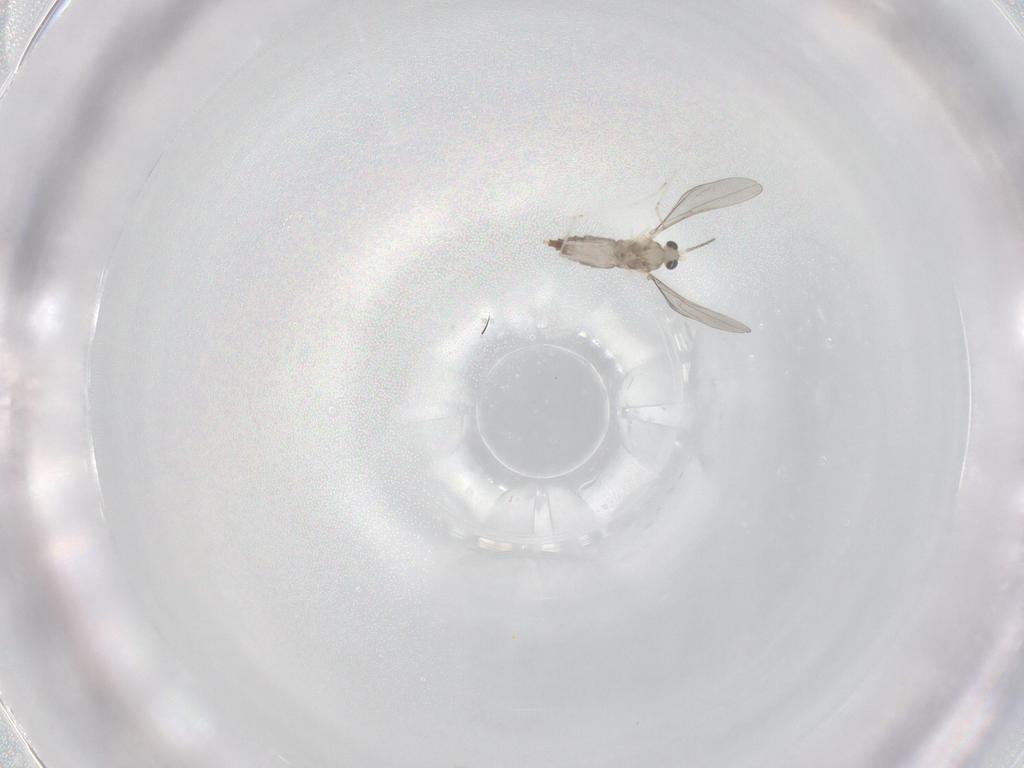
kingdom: Animalia
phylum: Arthropoda
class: Insecta
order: Diptera
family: Cecidomyiidae
